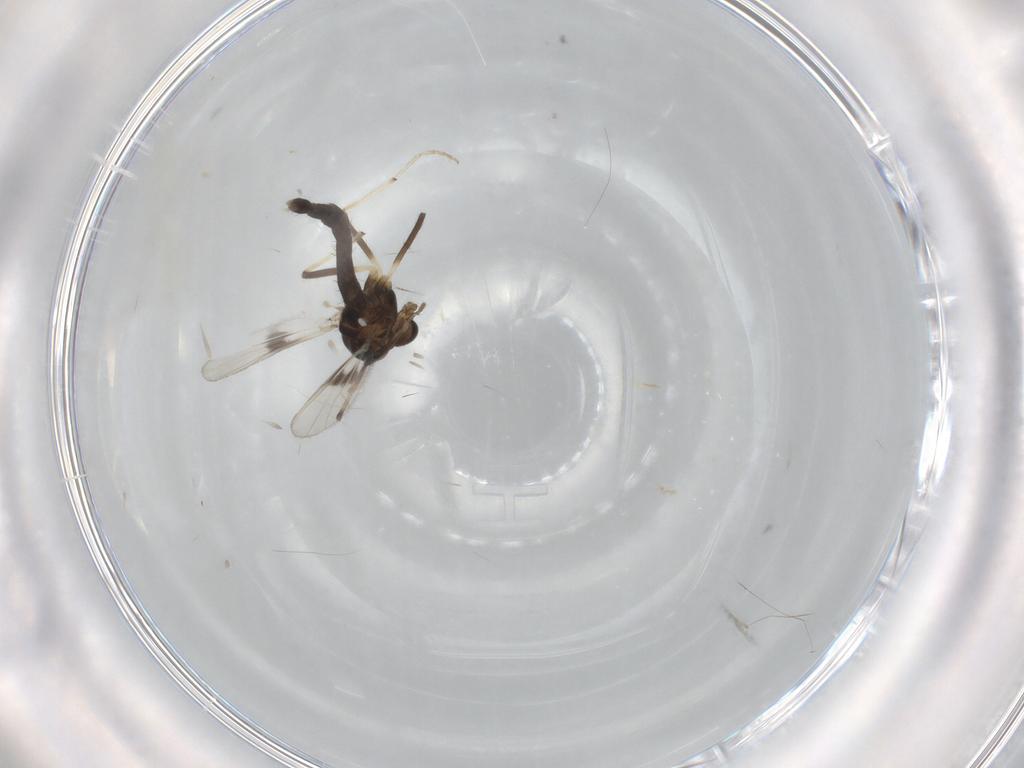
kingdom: Animalia
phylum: Arthropoda
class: Insecta
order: Diptera
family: Chironomidae
